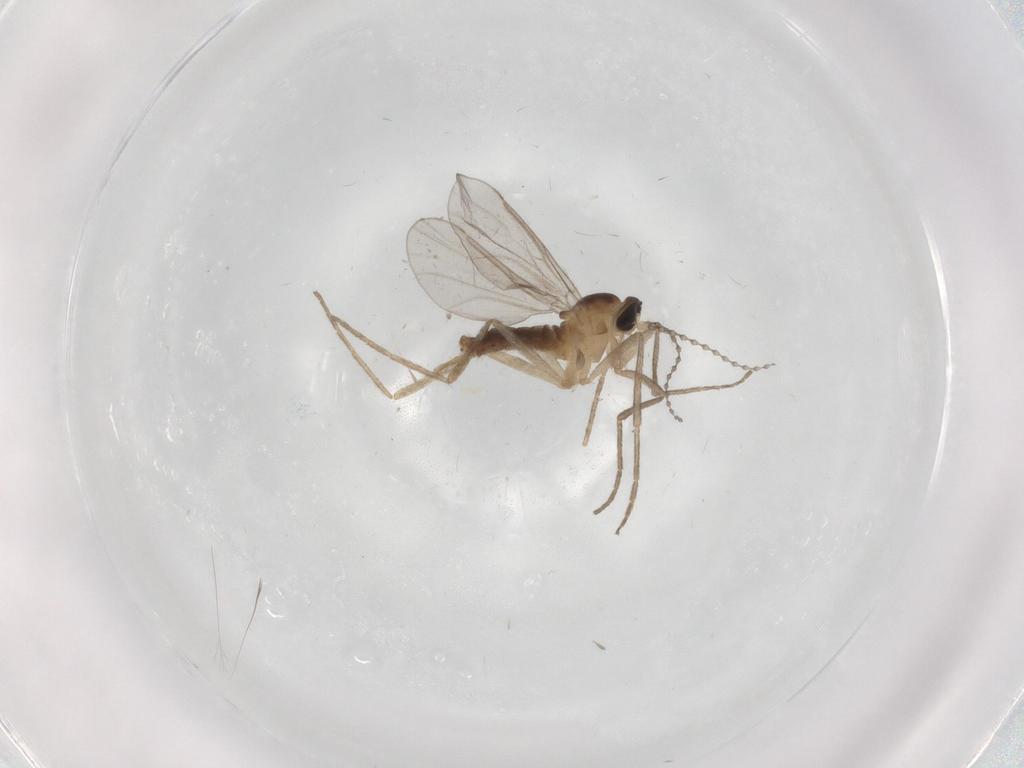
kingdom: Animalia
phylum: Arthropoda
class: Insecta
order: Diptera
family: Cecidomyiidae
